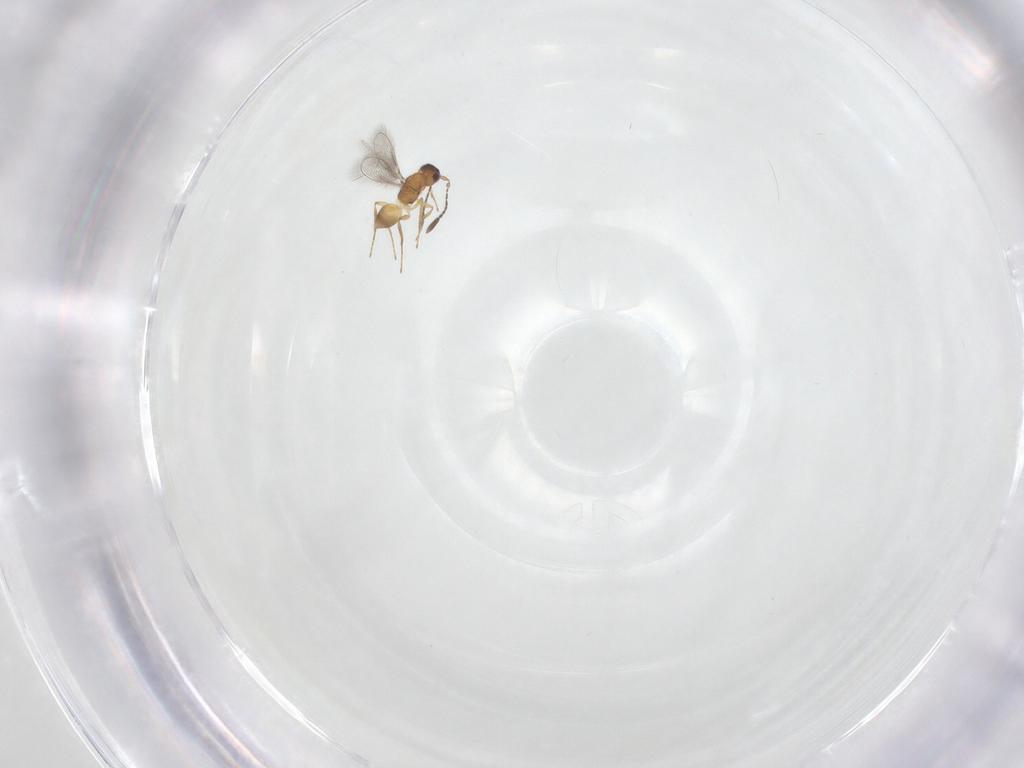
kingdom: Animalia
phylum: Arthropoda
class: Insecta
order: Hymenoptera
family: Mymaridae
